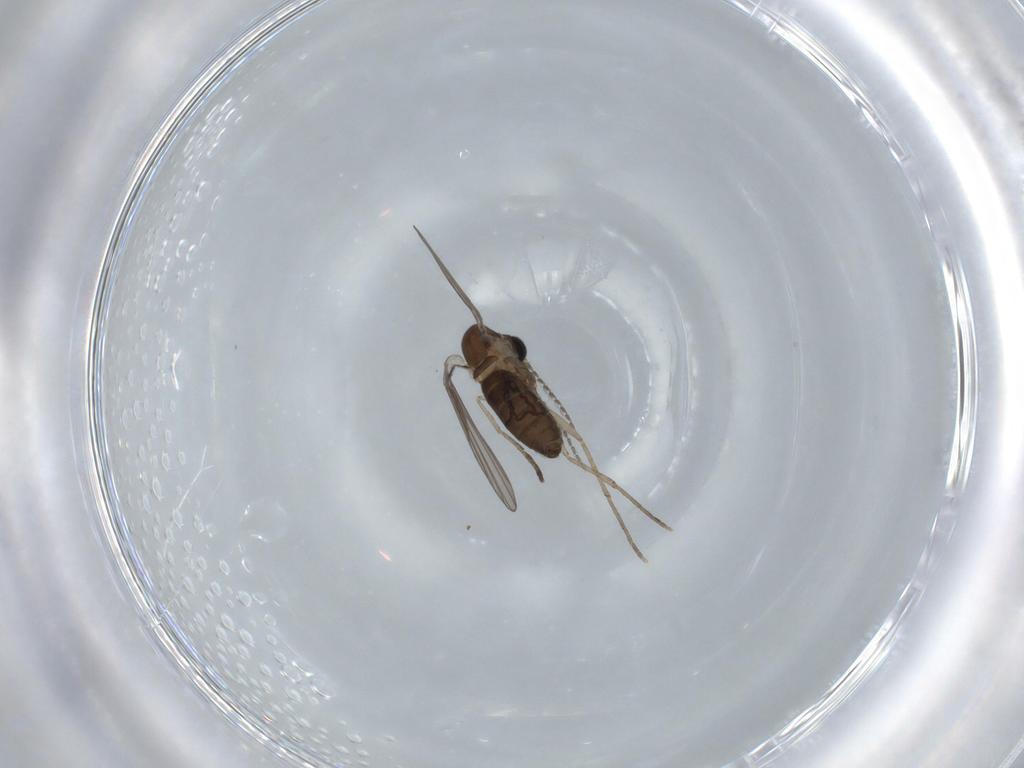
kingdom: Animalia
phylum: Arthropoda
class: Insecta
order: Diptera
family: Psychodidae
